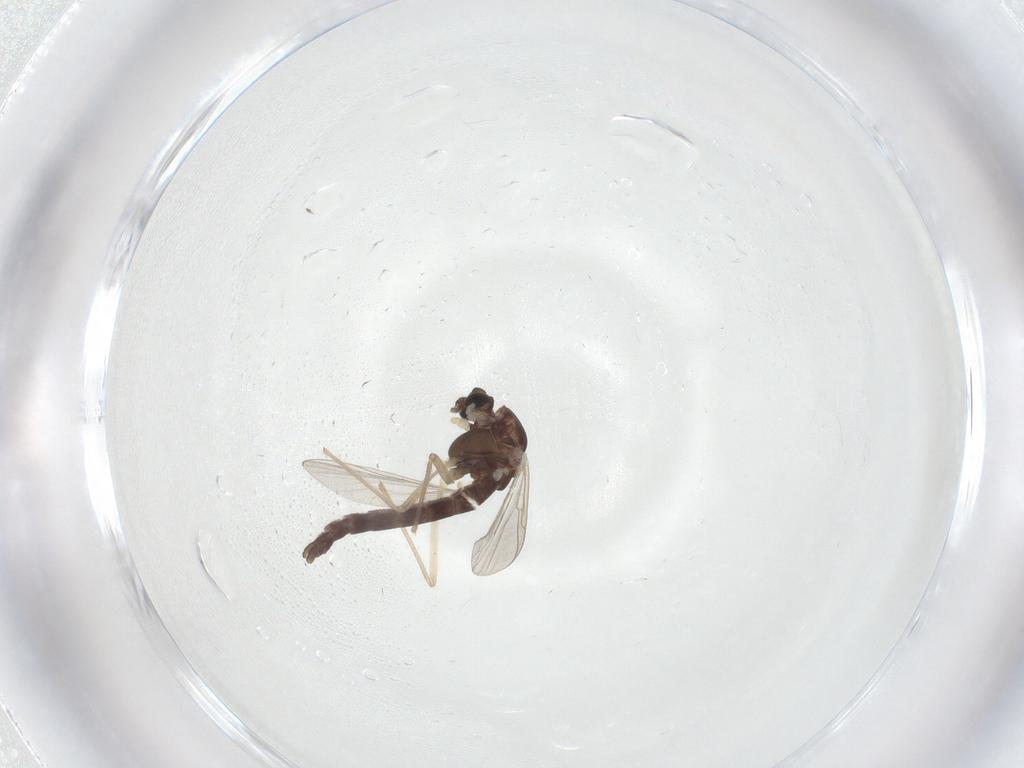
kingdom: Animalia
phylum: Arthropoda
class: Insecta
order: Diptera
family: Chironomidae
